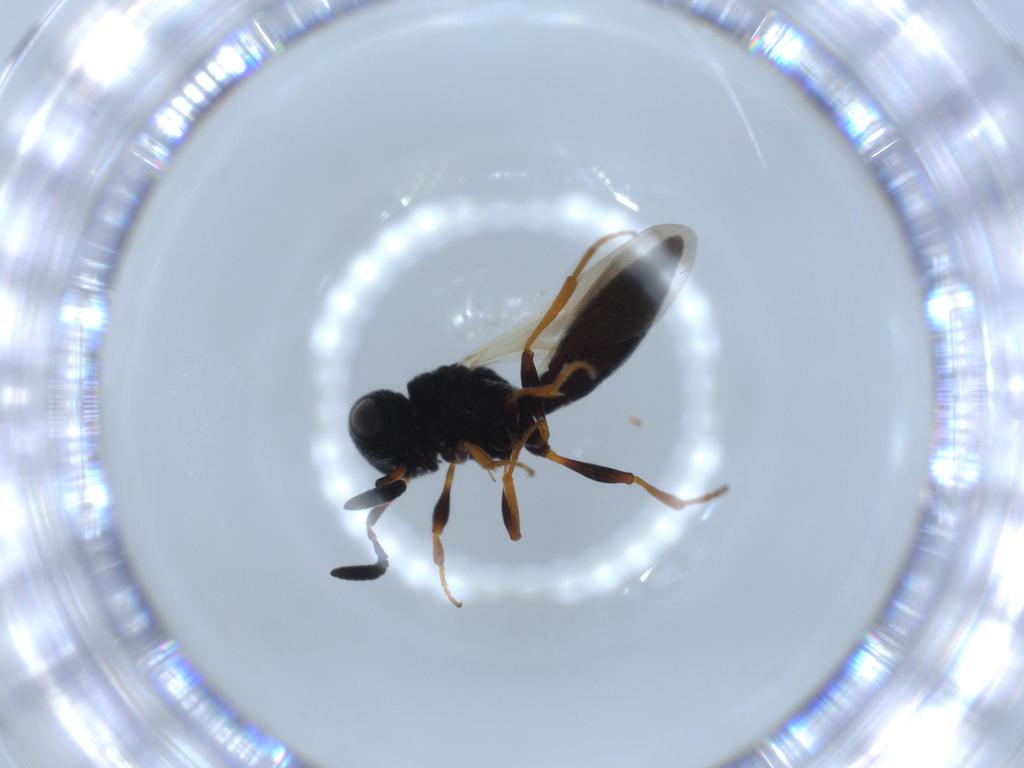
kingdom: Animalia
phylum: Arthropoda
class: Insecta
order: Hymenoptera
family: Scelionidae
